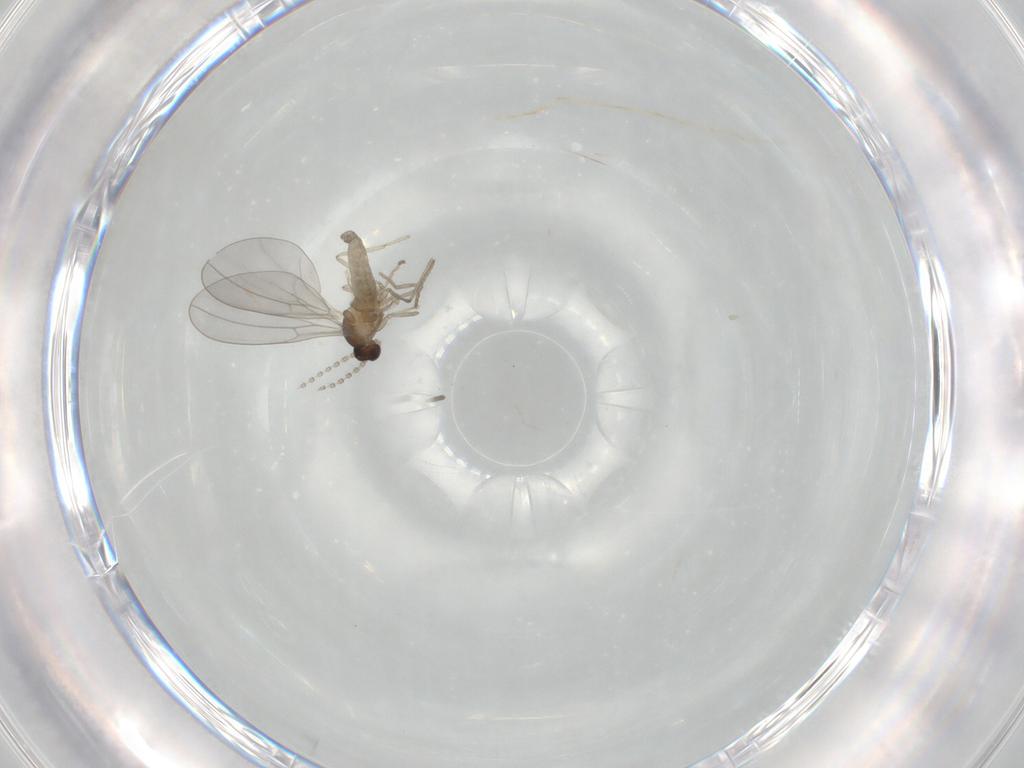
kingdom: Animalia
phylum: Arthropoda
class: Insecta
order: Diptera
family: Cecidomyiidae
